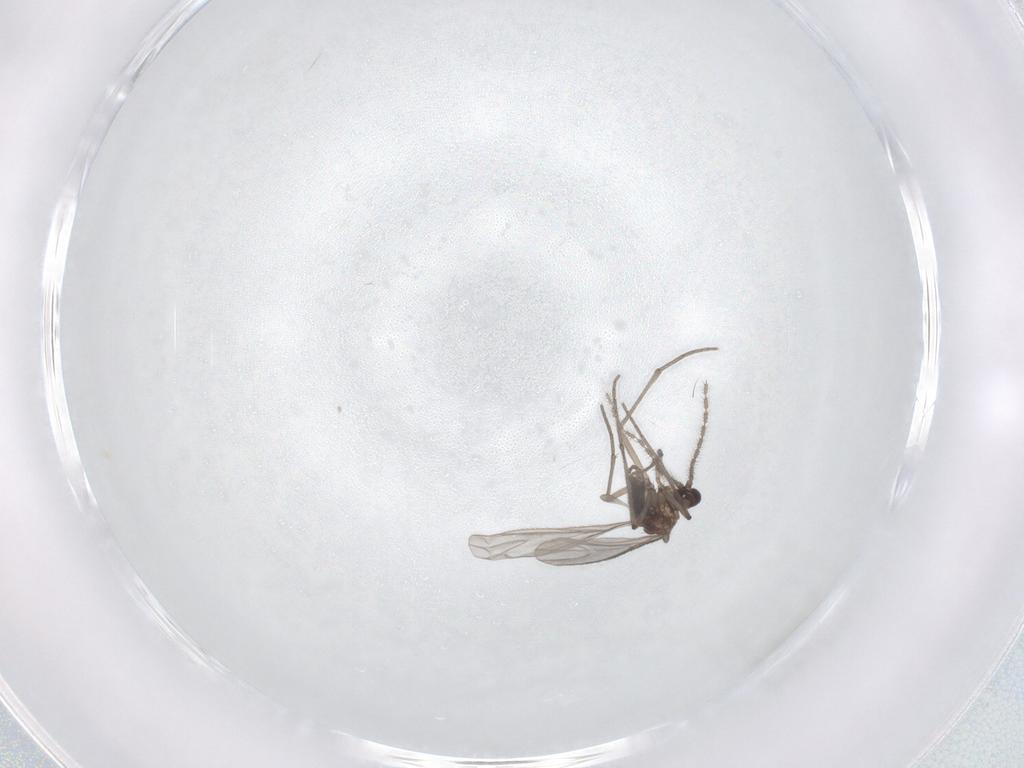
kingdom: Animalia
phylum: Arthropoda
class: Insecta
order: Diptera
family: Sciaridae
